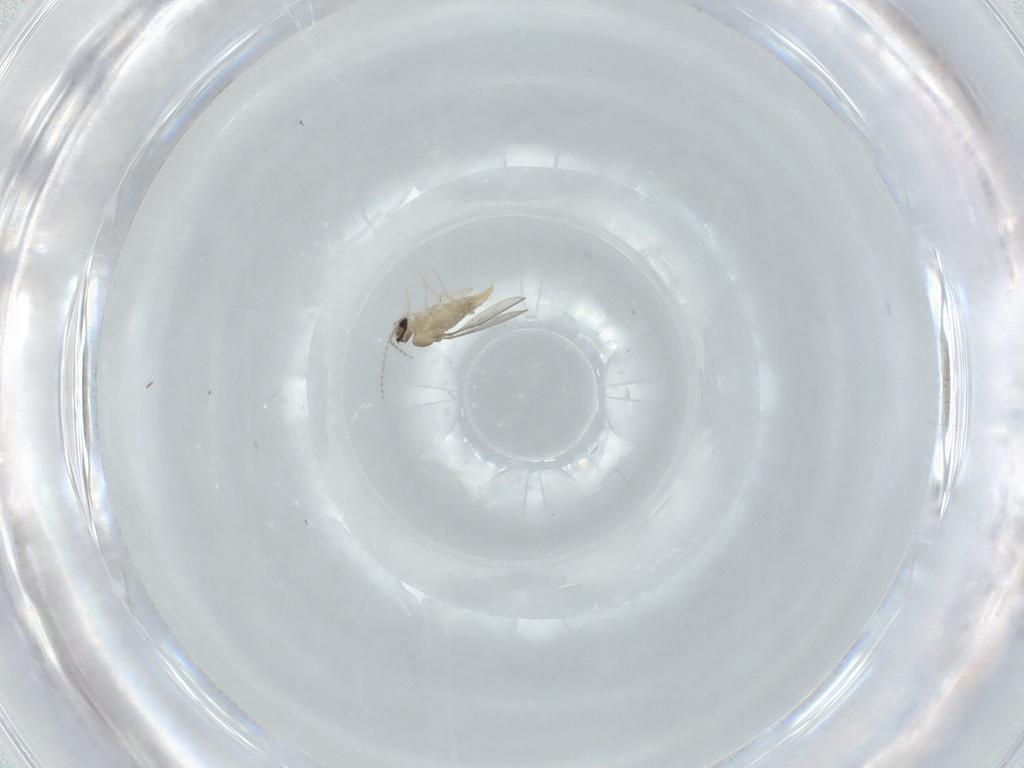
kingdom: Animalia
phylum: Arthropoda
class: Insecta
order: Diptera
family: Cecidomyiidae
